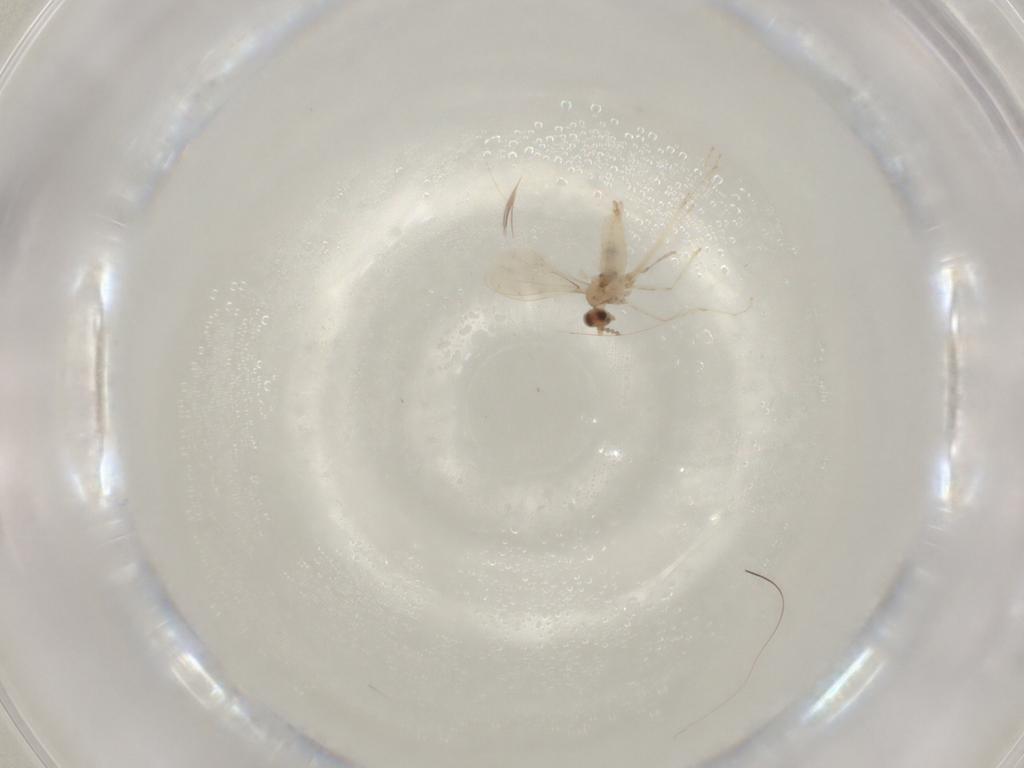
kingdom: Animalia
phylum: Arthropoda
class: Insecta
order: Diptera
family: Cecidomyiidae
